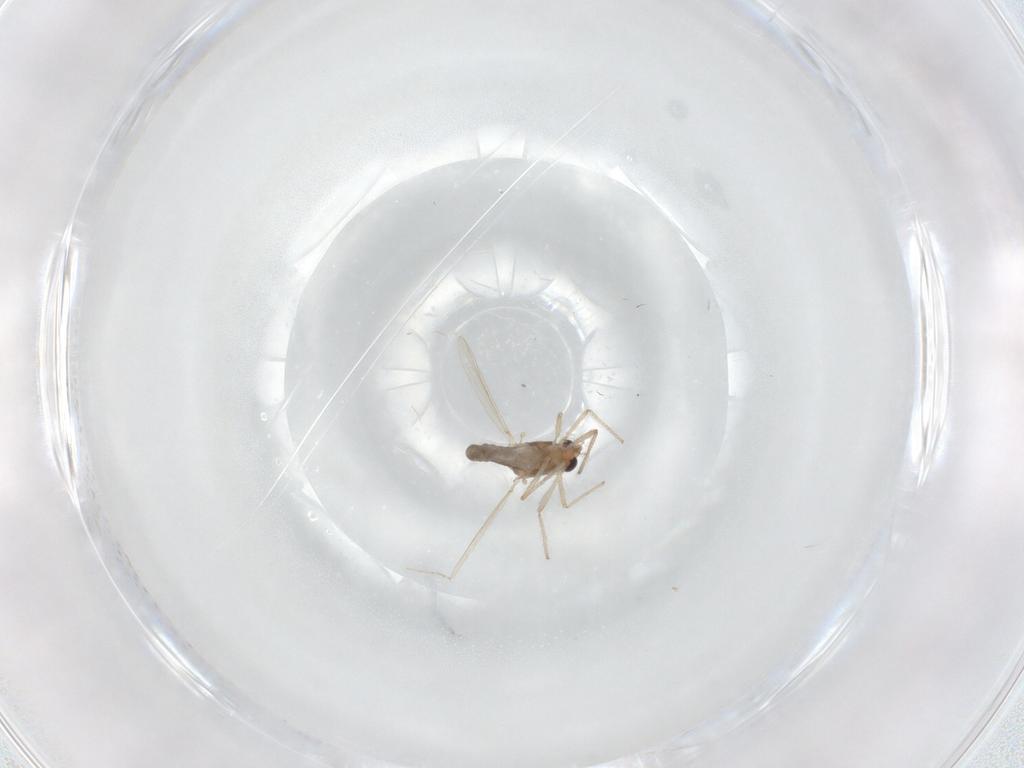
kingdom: Animalia
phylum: Arthropoda
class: Insecta
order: Diptera
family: Chironomidae
